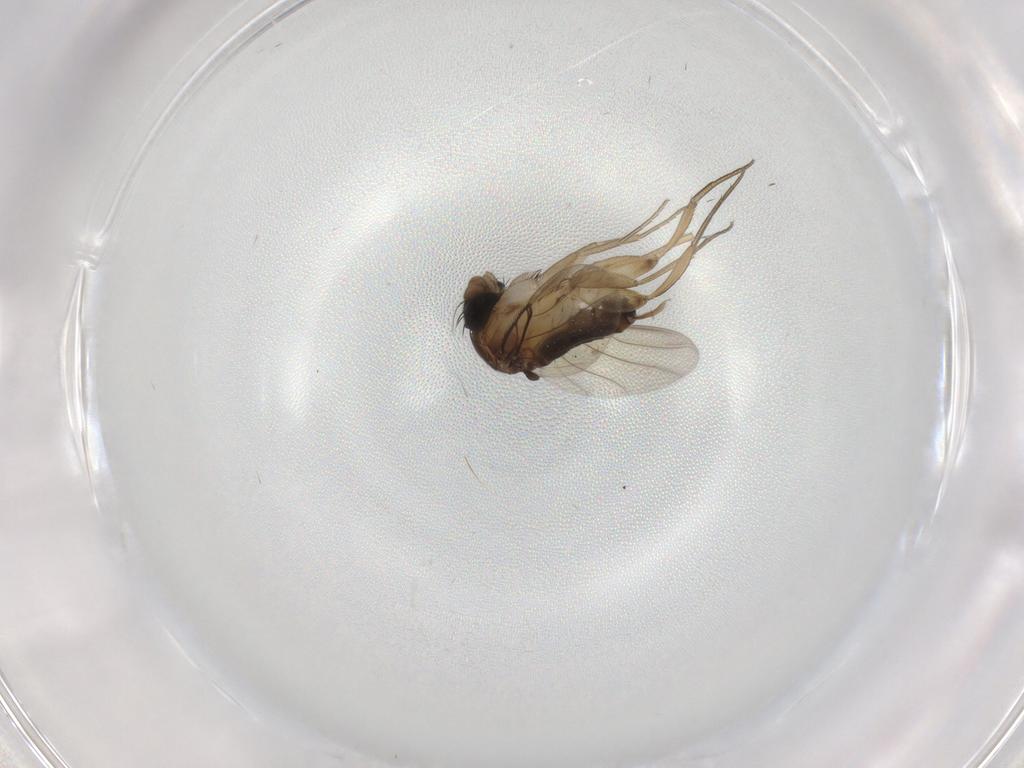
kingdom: Animalia
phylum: Arthropoda
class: Insecta
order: Diptera
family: Phoridae
